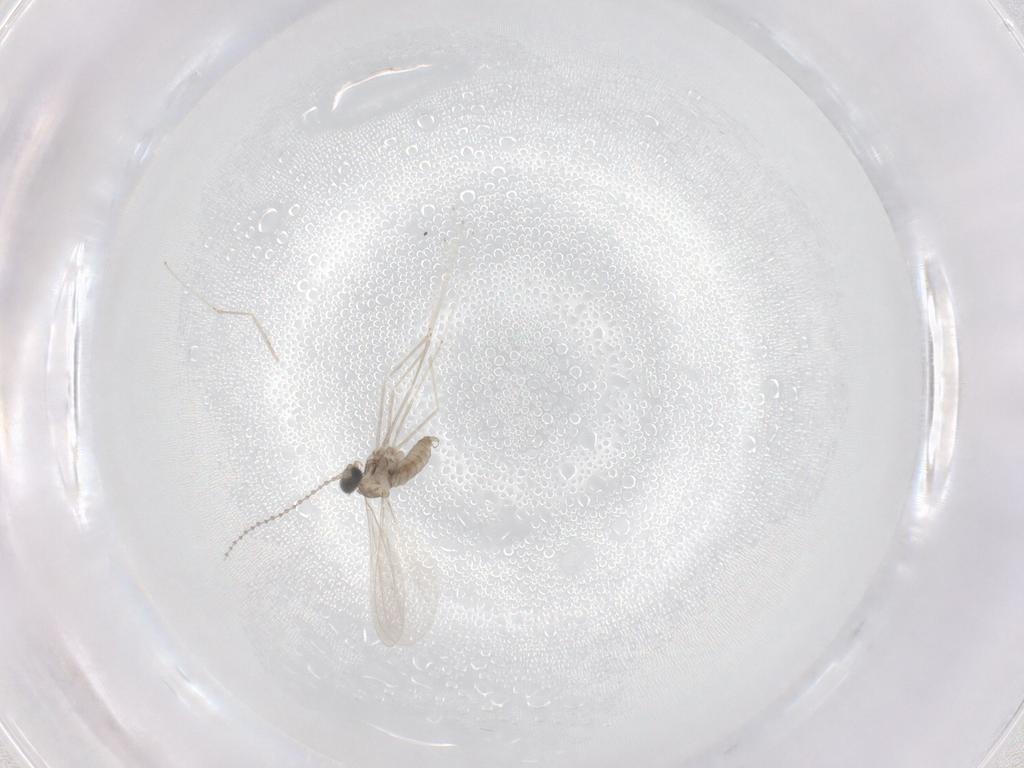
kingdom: Animalia
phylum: Arthropoda
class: Insecta
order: Diptera
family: Cecidomyiidae
